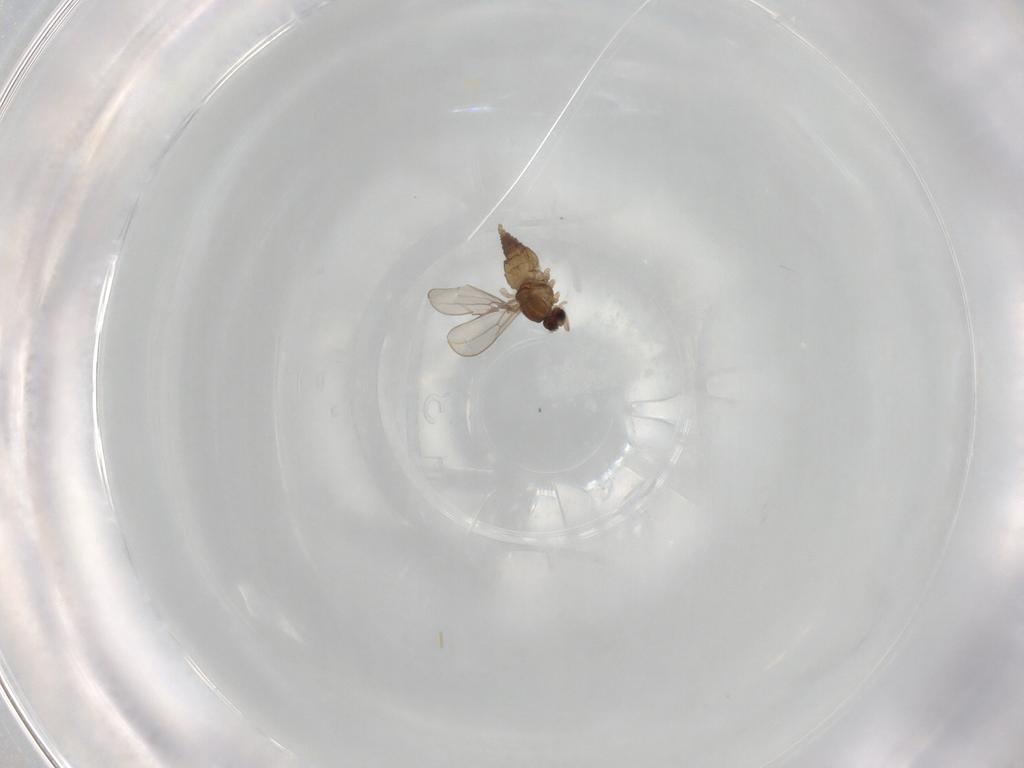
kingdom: Animalia
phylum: Arthropoda
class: Insecta
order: Diptera
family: Cecidomyiidae
